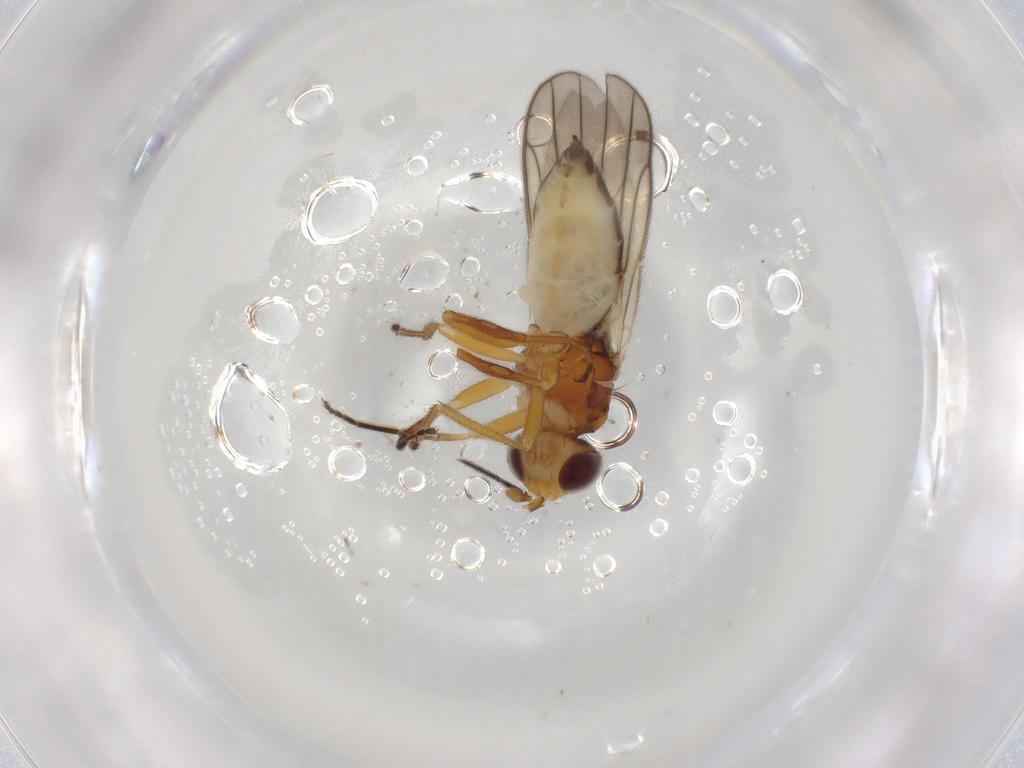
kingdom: Animalia
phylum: Arthropoda
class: Insecta
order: Diptera
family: Chloropidae
